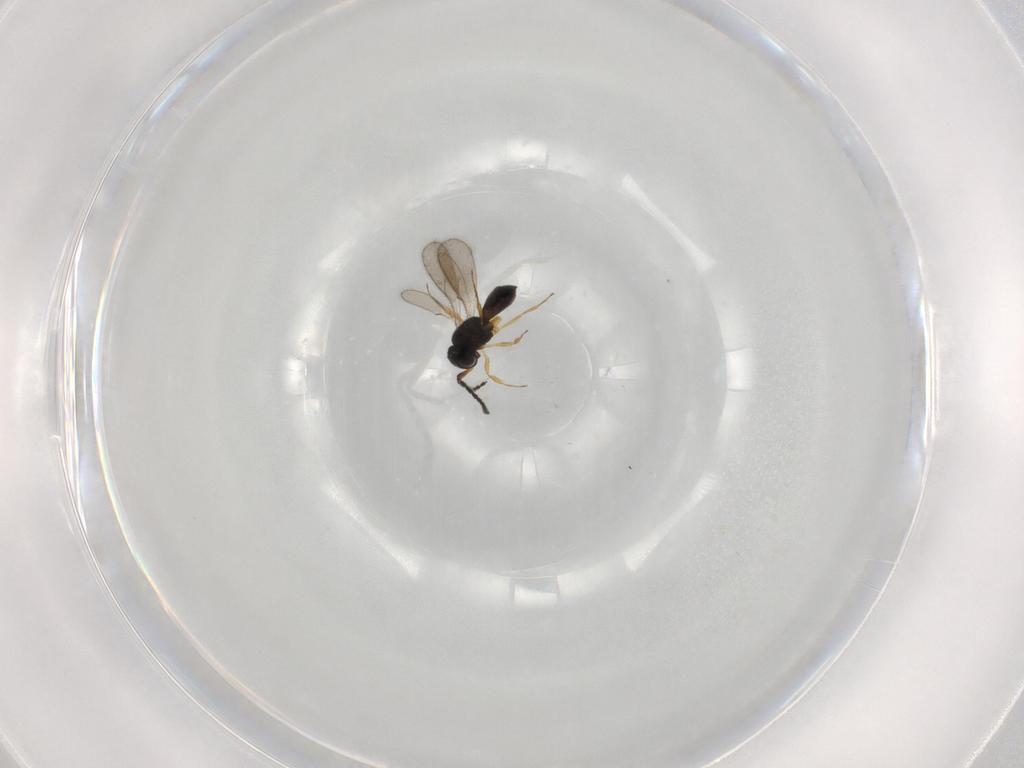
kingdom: Animalia
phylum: Arthropoda
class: Insecta
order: Hymenoptera
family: Scelionidae
